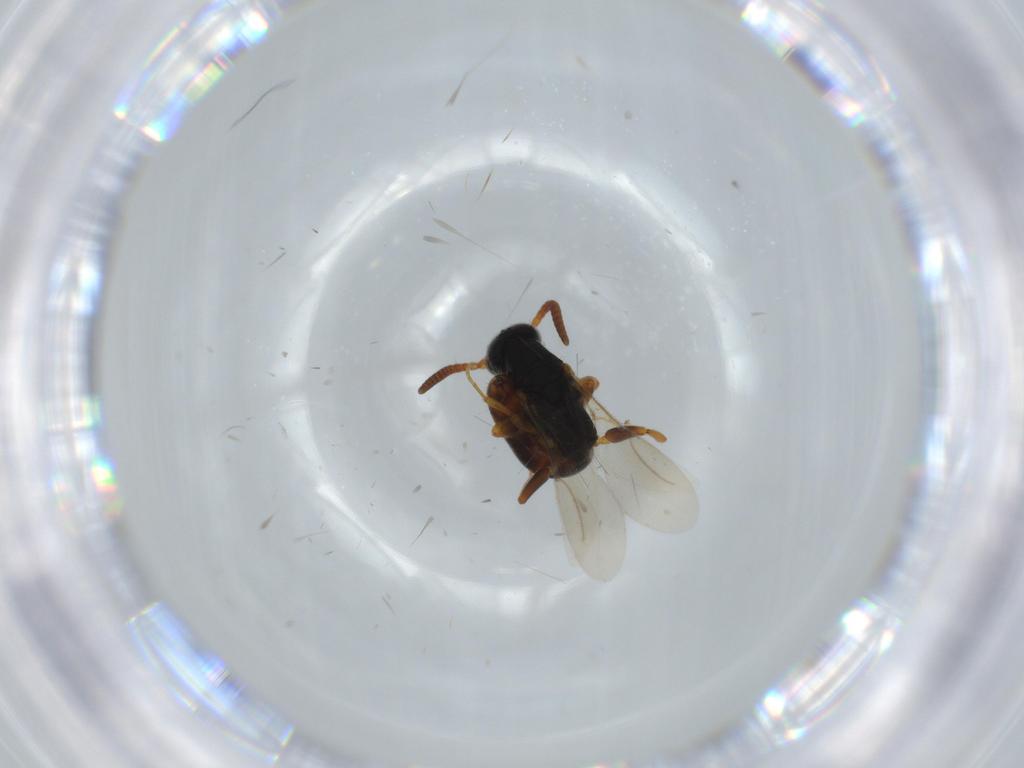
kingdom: Animalia
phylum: Arthropoda
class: Insecta
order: Hymenoptera
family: Bethylidae
